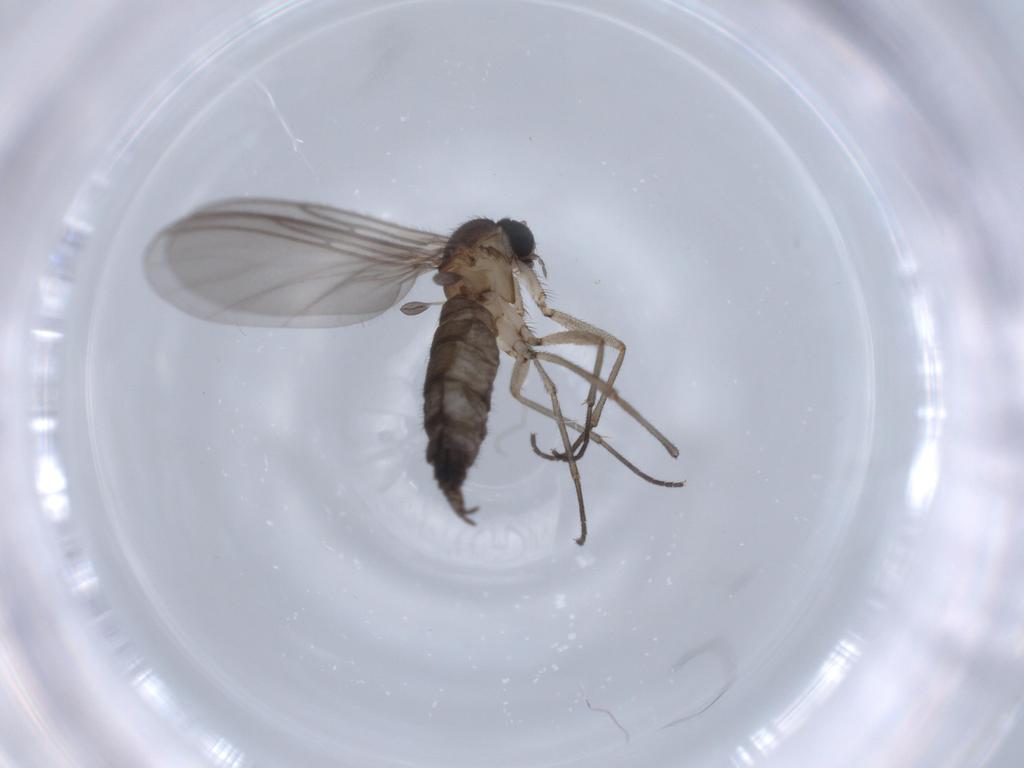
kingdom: Animalia
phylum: Arthropoda
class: Insecta
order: Diptera
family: Sciaridae
